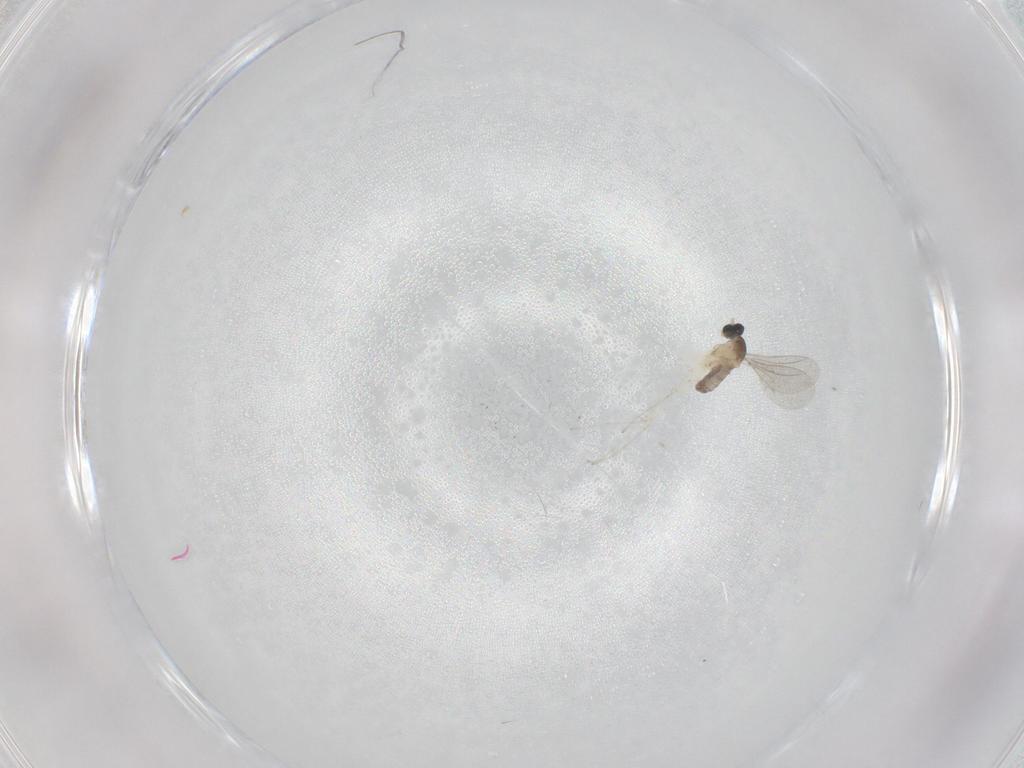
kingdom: Animalia
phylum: Arthropoda
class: Insecta
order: Diptera
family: Cecidomyiidae
